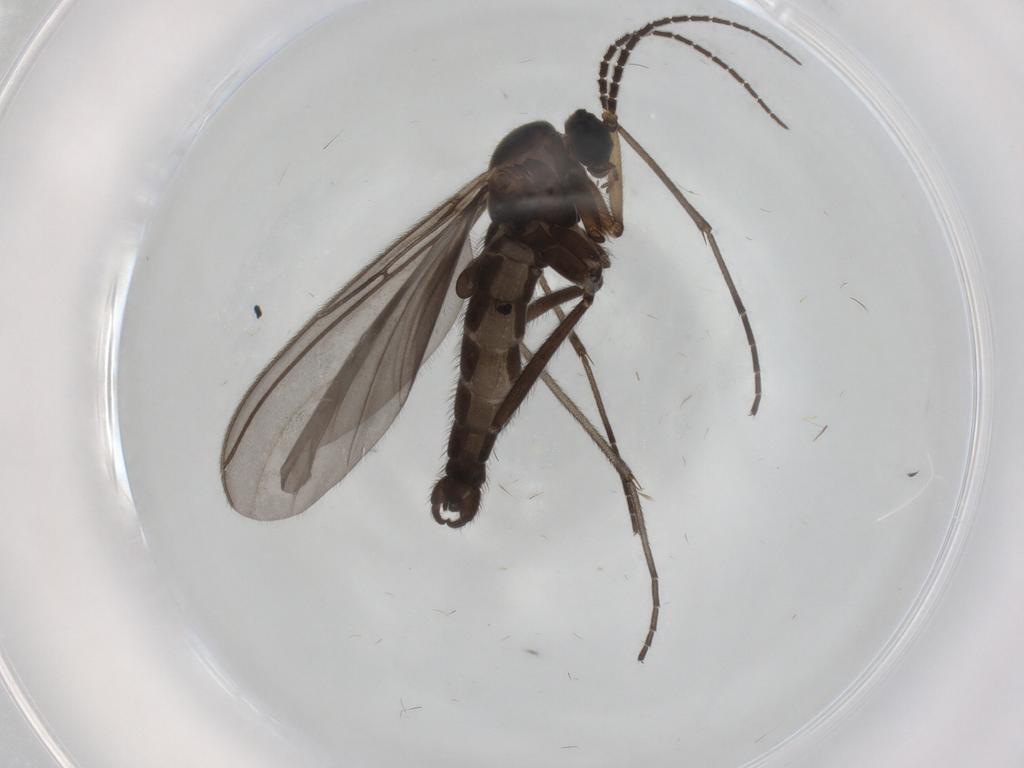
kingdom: Animalia
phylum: Arthropoda
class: Insecta
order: Diptera
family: Sciaridae
